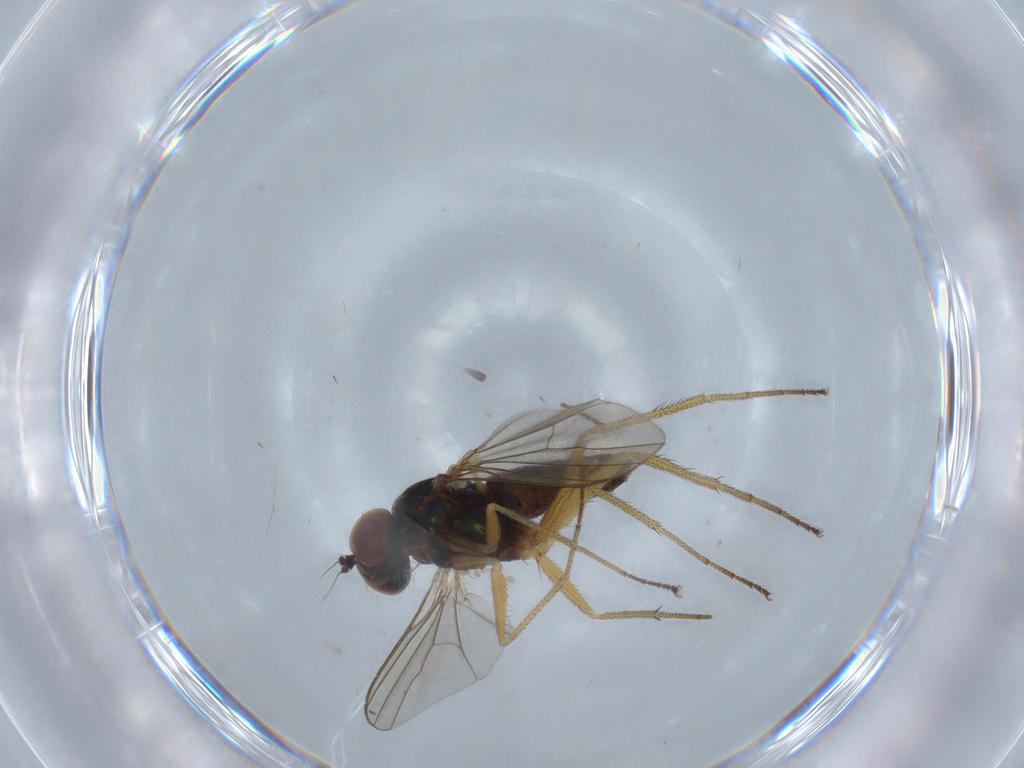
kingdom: Animalia
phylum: Arthropoda
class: Insecta
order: Diptera
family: Dolichopodidae
